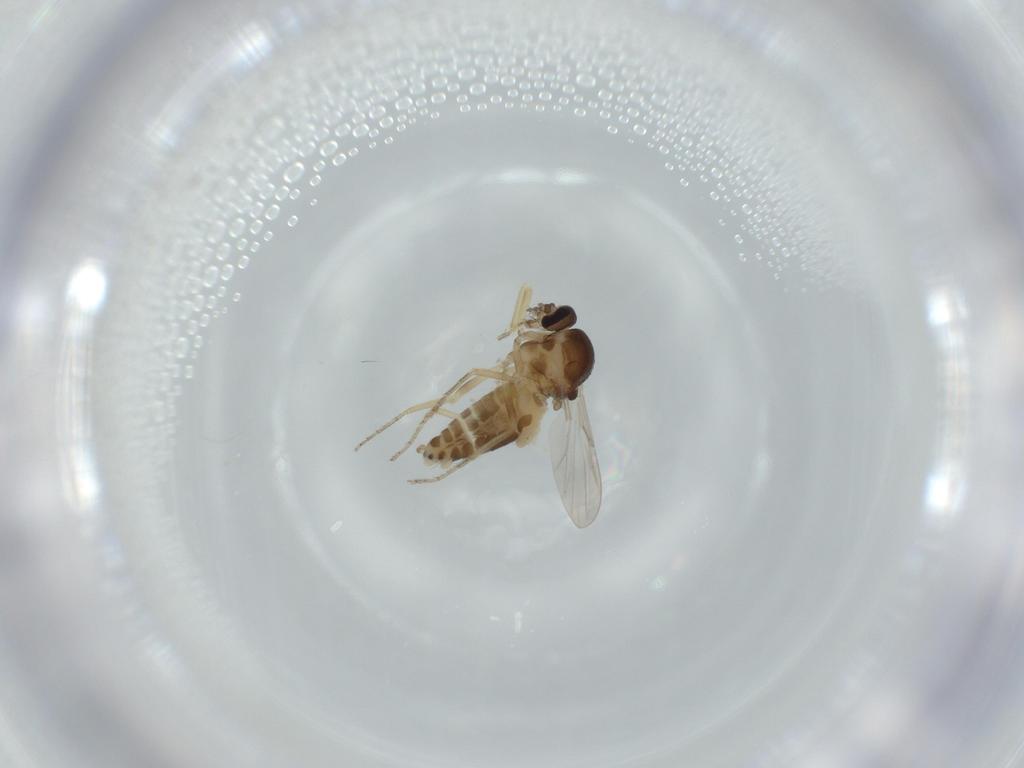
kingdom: Animalia
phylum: Arthropoda
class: Insecta
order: Diptera
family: Ceratopogonidae
